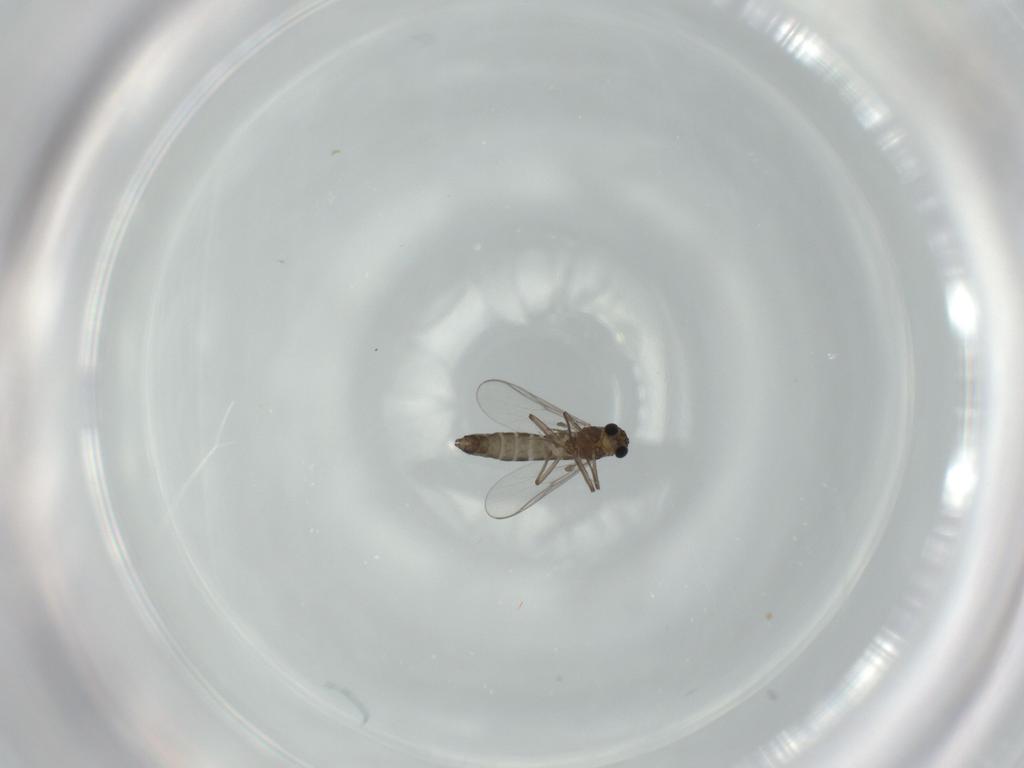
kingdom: Animalia
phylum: Arthropoda
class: Insecta
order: Diptera
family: Chironomidae
